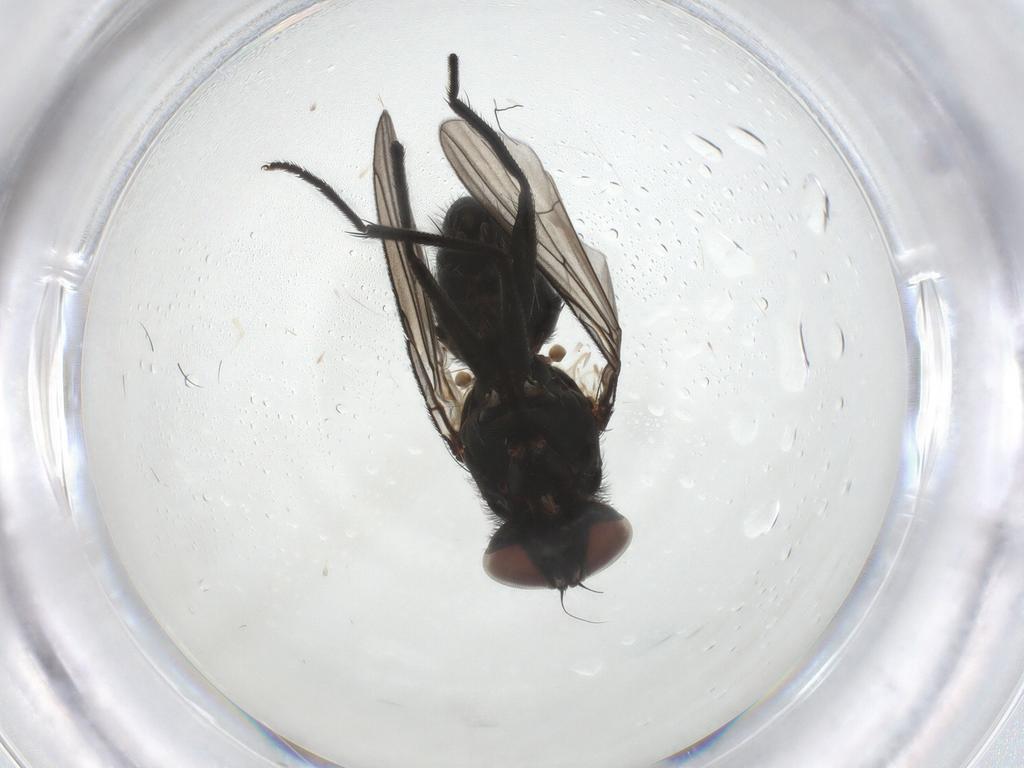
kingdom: Animalia
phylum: Arthropoda
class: Insecta
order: Diptera
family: Muscidae
